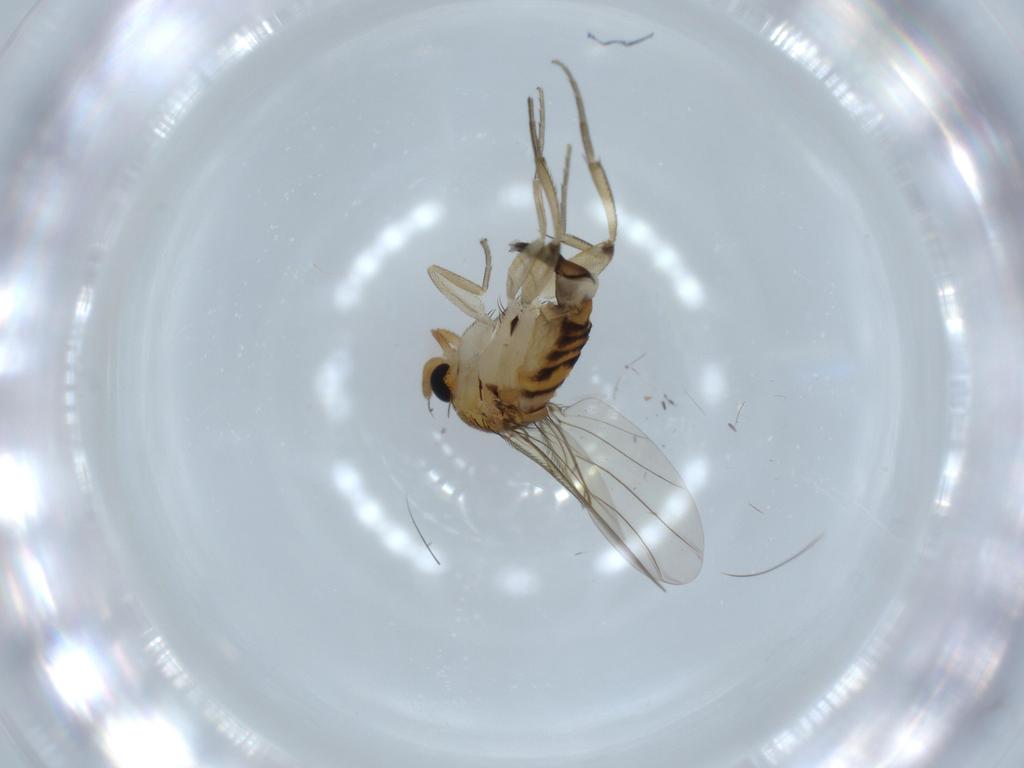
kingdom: Animalia
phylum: Arthropoda
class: Insecta
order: Diptera
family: Phoridae
